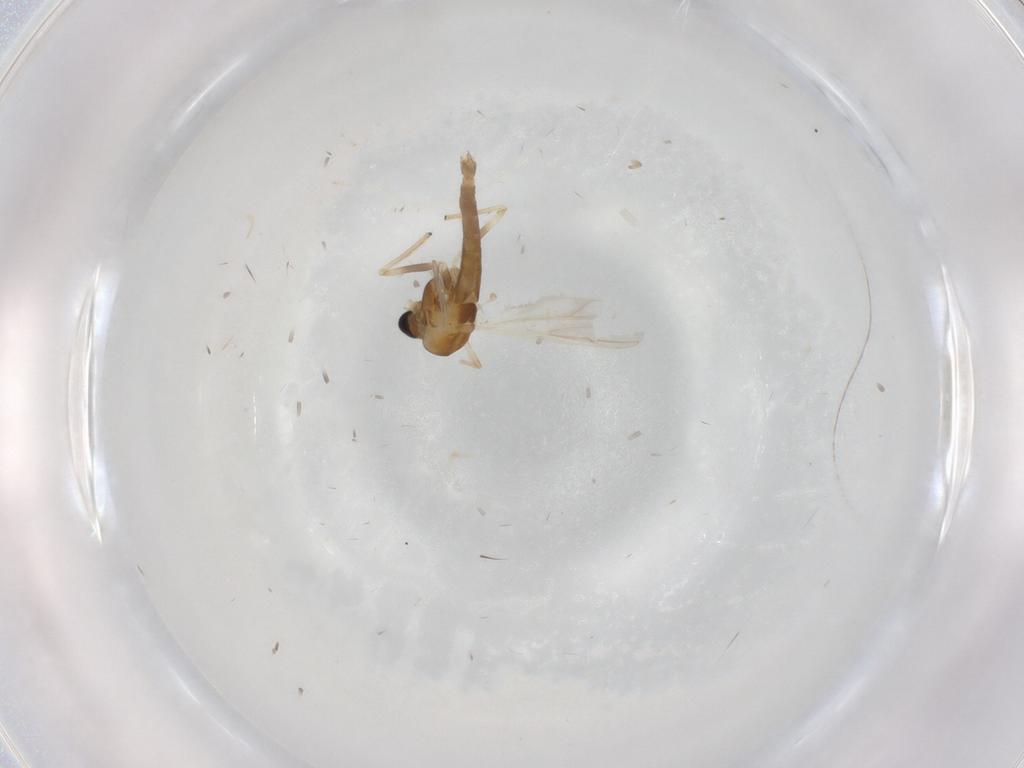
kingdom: Animalia
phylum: Arthropoda
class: Insecta
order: Diptera
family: Chironomidae
